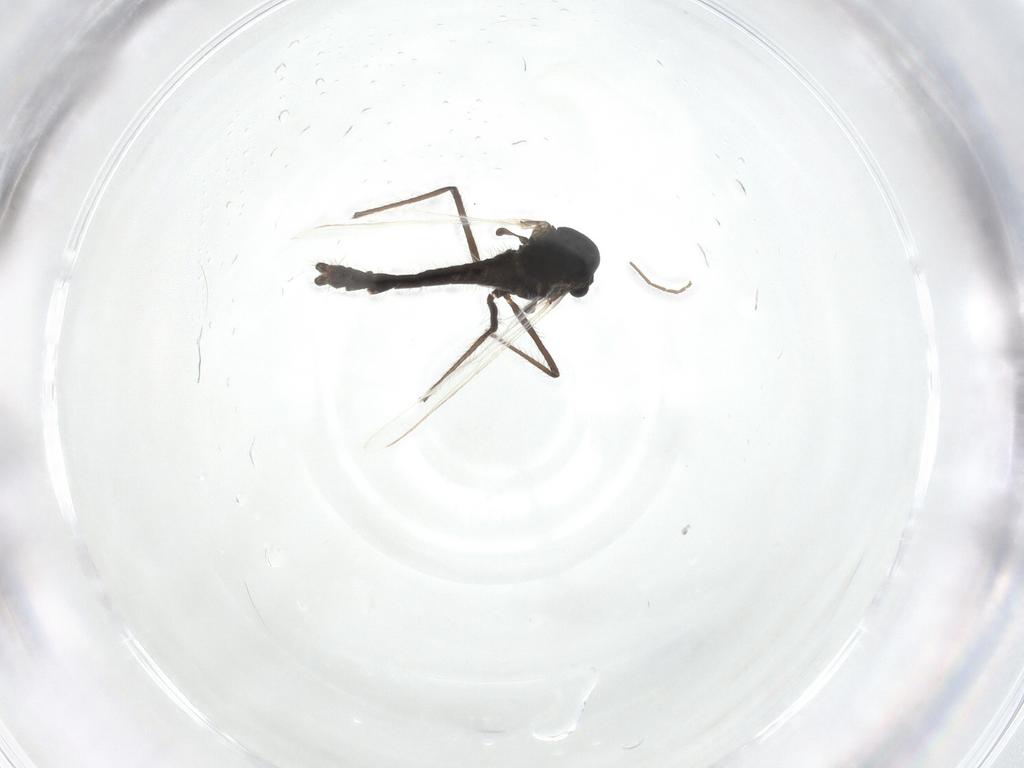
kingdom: Animalia
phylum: Arthropoda
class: Insecta
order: Diptera
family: Chironomidae
